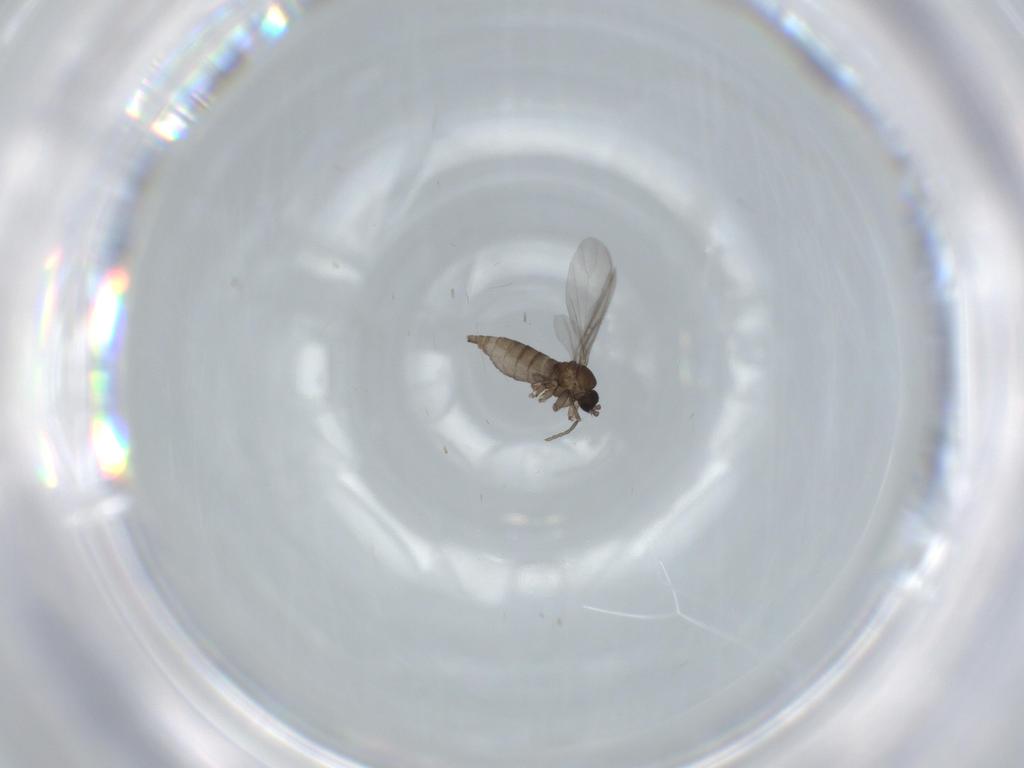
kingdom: Animalia
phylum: Arthropoda
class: Insecta
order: Diptera
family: Sciaridae
